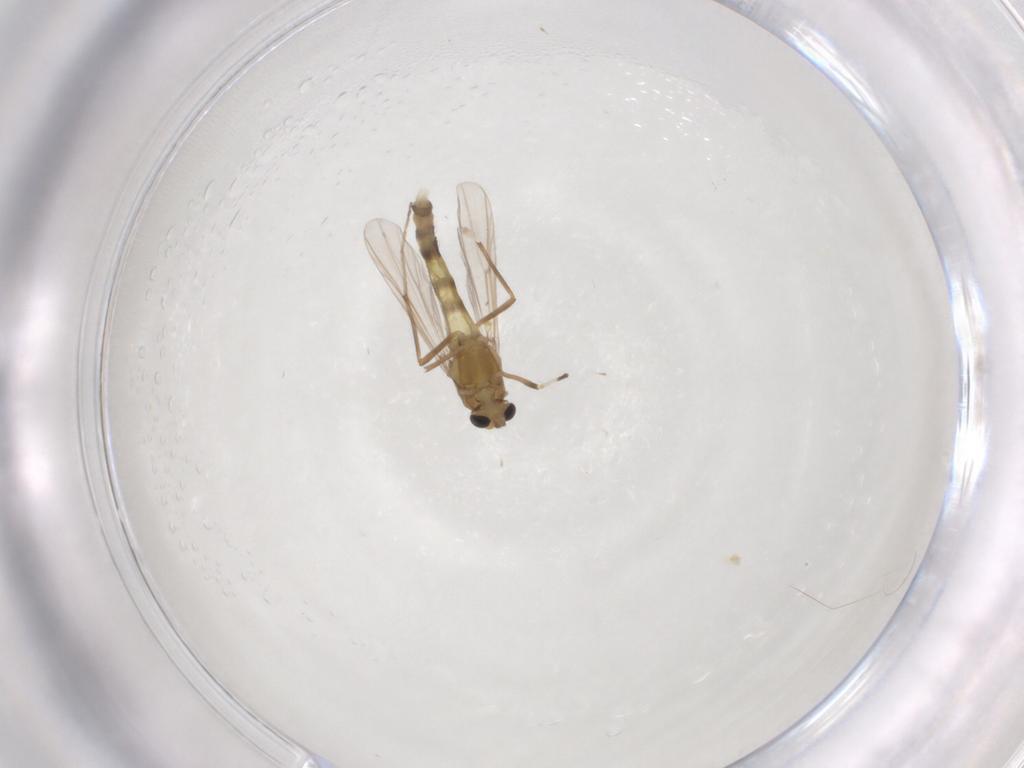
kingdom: Animalia
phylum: Arthropoda
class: Insecta
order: Diptera
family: Chironomidae
